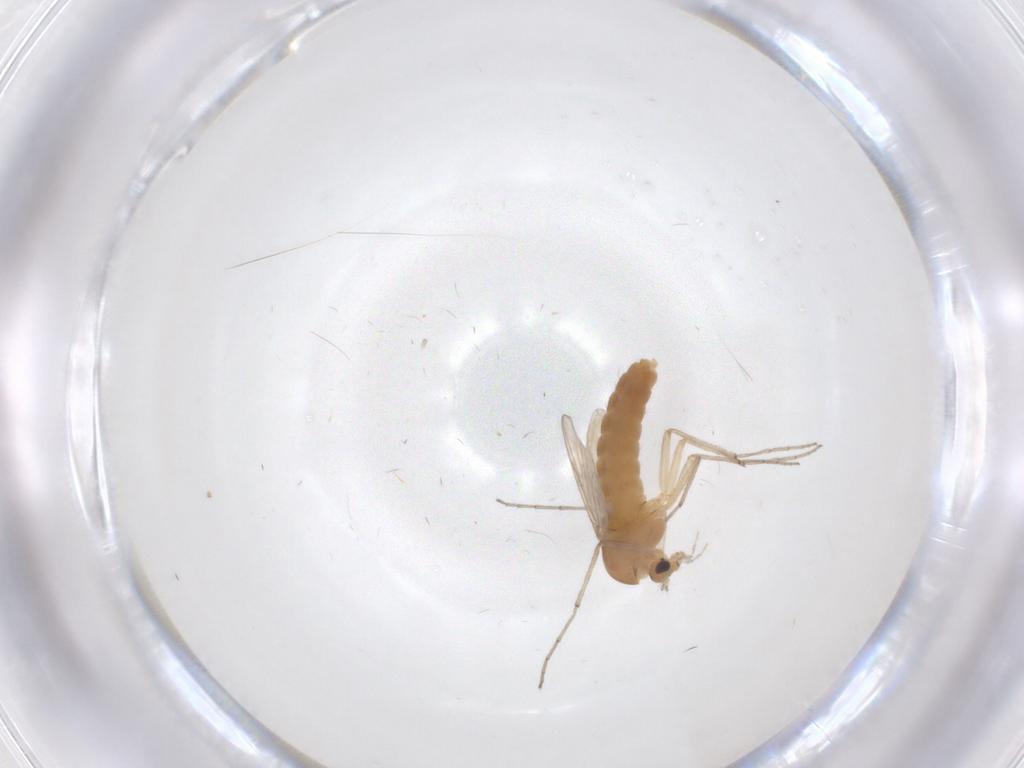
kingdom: Animalia
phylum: Arthropoda
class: Insecta
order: Diptera
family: Chironomidae
